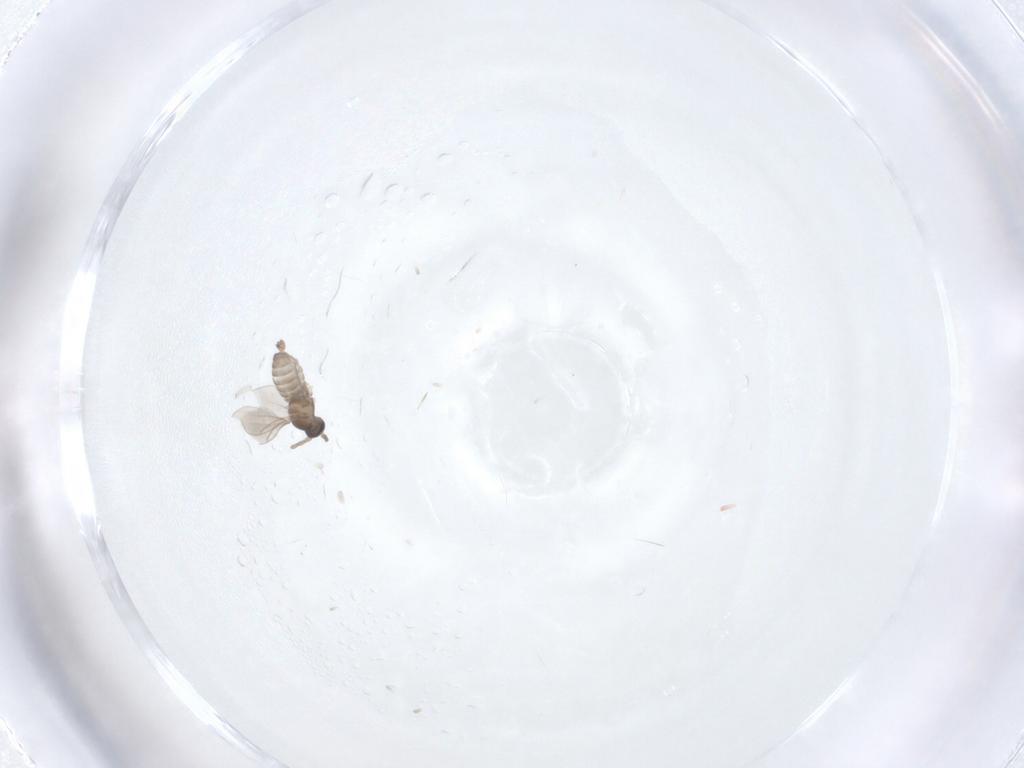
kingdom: Animalia
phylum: Arthropoda
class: Insecta
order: Diptera
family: Cecidomyiidae
